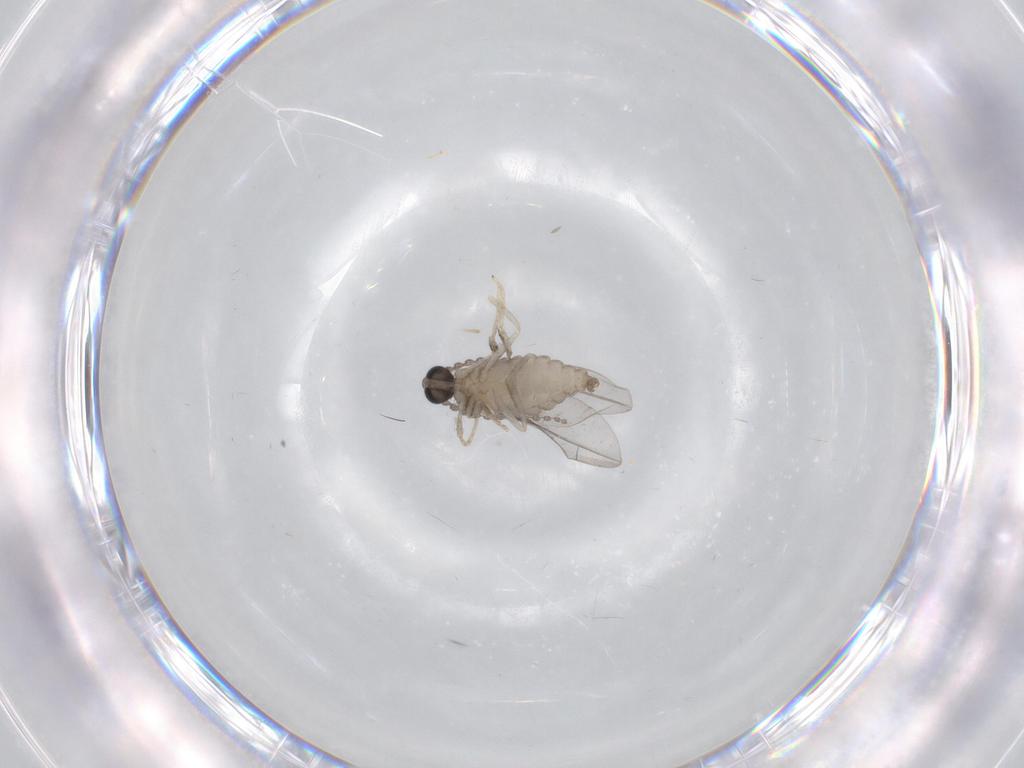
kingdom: Animalia
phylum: Arthropoda
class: Insecta
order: Diptera
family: Cecidomyiidae
